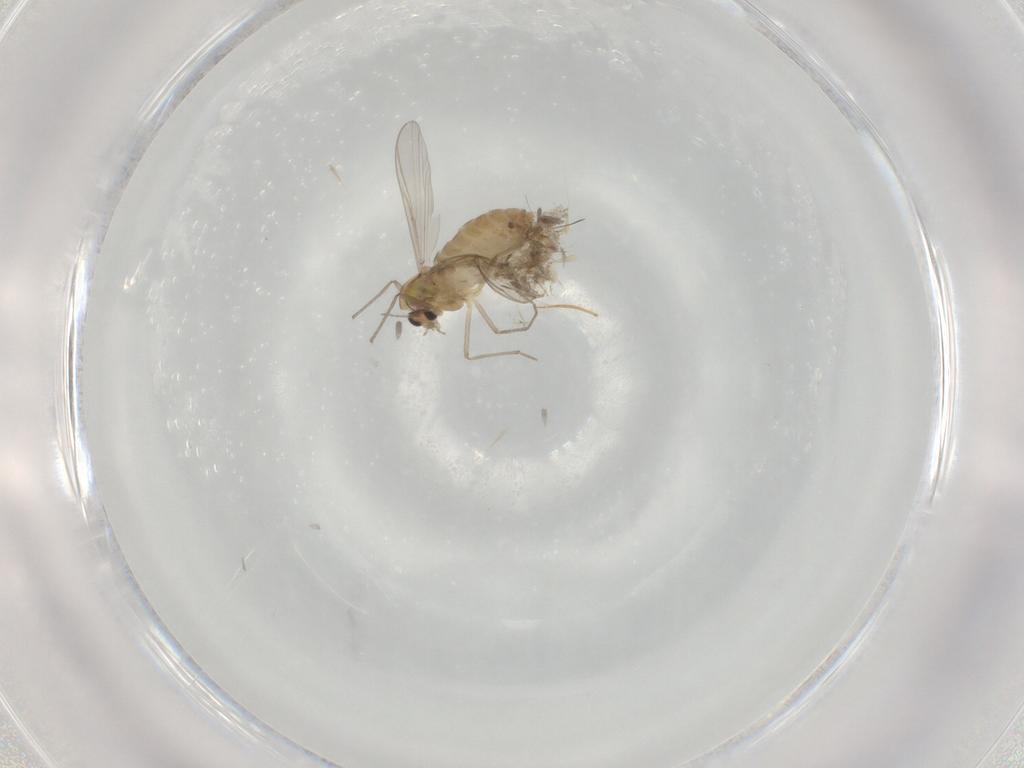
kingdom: Animalia
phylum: Arthropoda
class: Insecta
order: Diptera
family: Chironomidae
